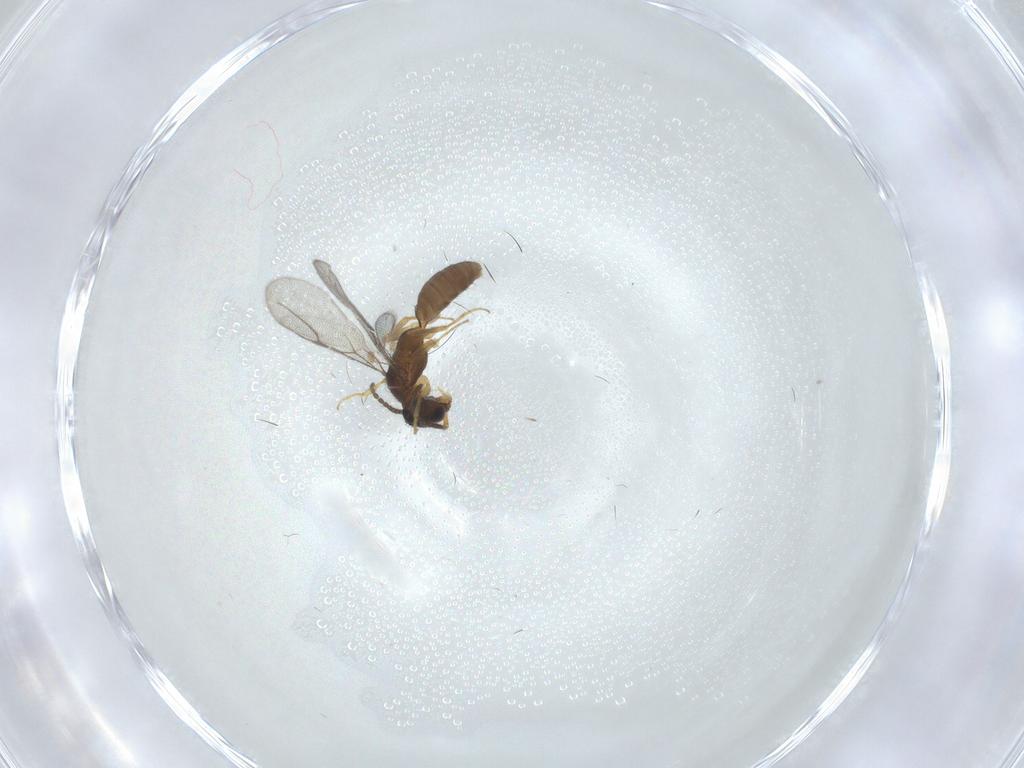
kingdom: Animalia
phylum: Arthropoda
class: Insecta
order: Hymenoptera
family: Bethylidae
